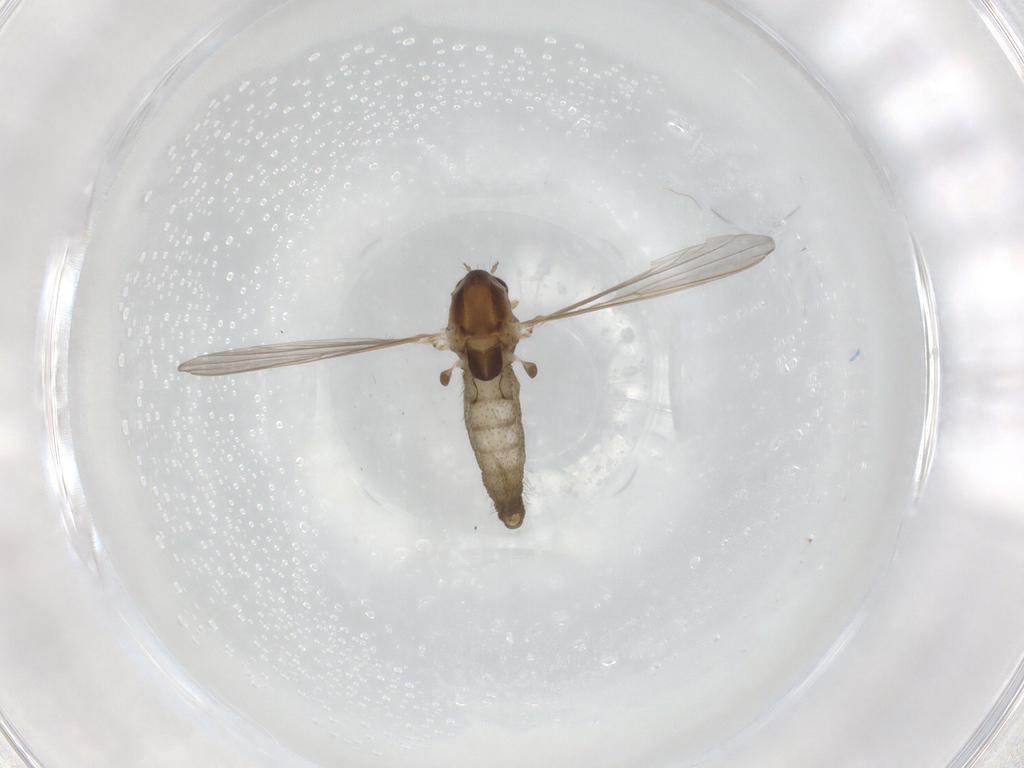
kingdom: Animalia
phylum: Arthropoda
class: Insecta
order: Diptera
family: Chironomidae
